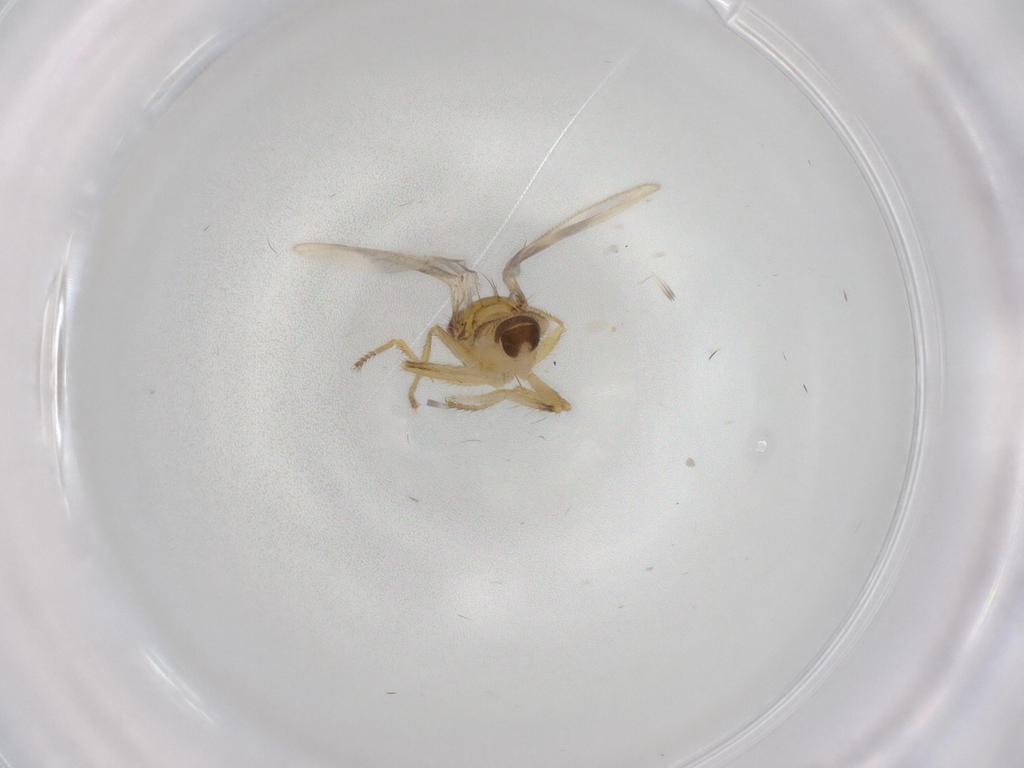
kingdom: Animalia
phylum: Arthropoda
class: Insecta
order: Diptera
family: Periscelididae
